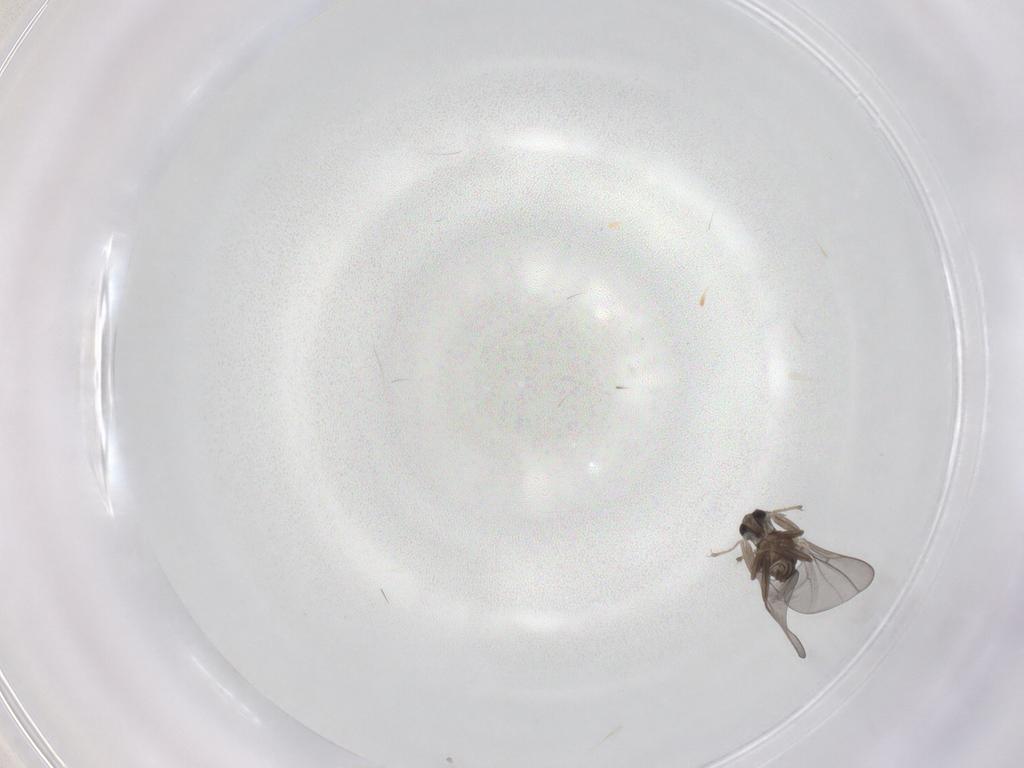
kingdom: Animalia
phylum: Arthropoda
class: Insecta
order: Diptera
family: Cecidomyiidae
